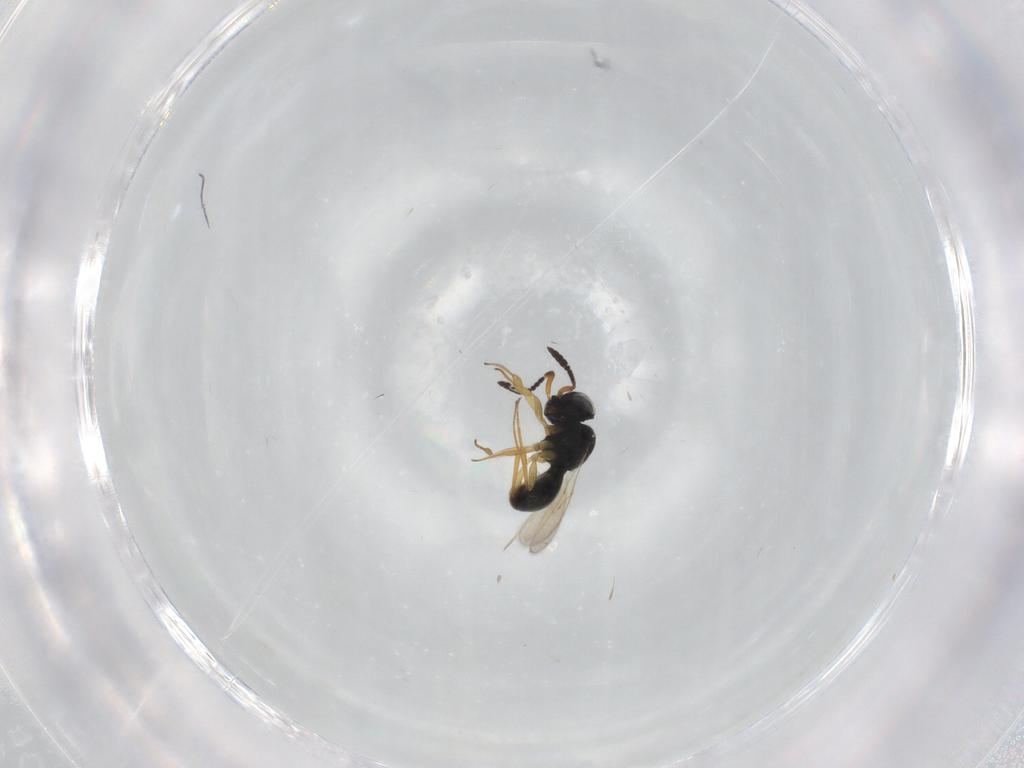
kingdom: Animalia
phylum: Arthropoda
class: Insecta
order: Hymenoptera
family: Scelionidae
